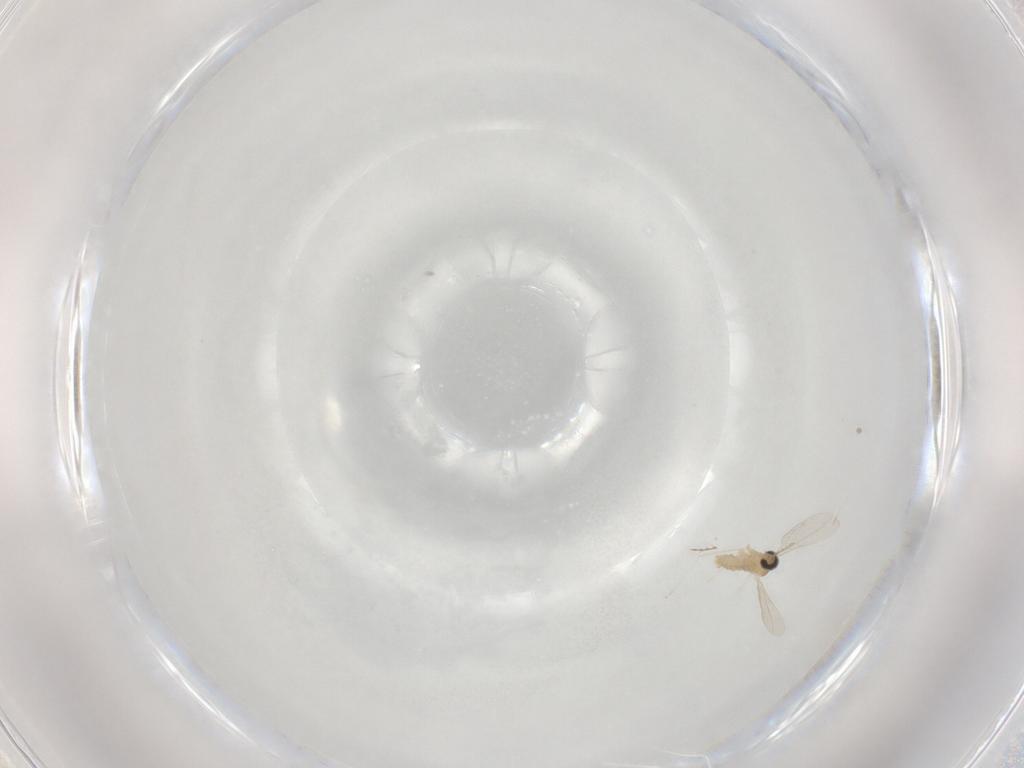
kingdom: Animalia
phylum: Arthropoda
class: Insecta
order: Diptera
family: Cecidomyiidae
